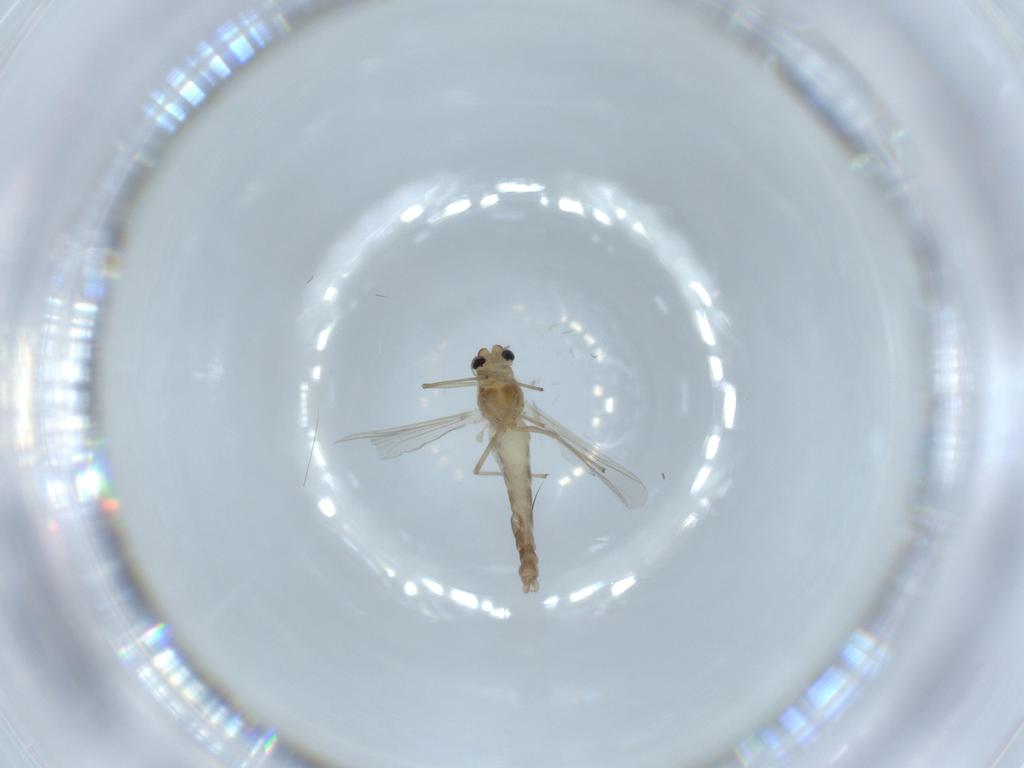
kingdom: Animalia
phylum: Arthropoda
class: Insecta
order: Diptera
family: Chironomidae
